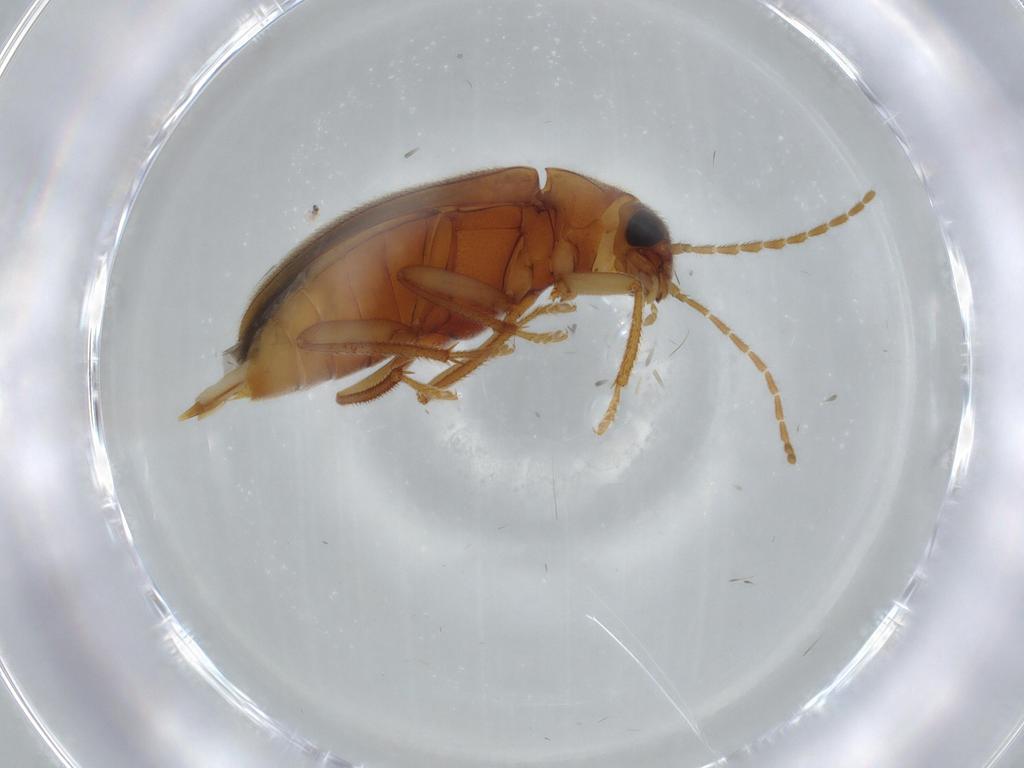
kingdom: Animalia
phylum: Arthropoda
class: Insecta
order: Coleoptera
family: Ptilodactylidae
